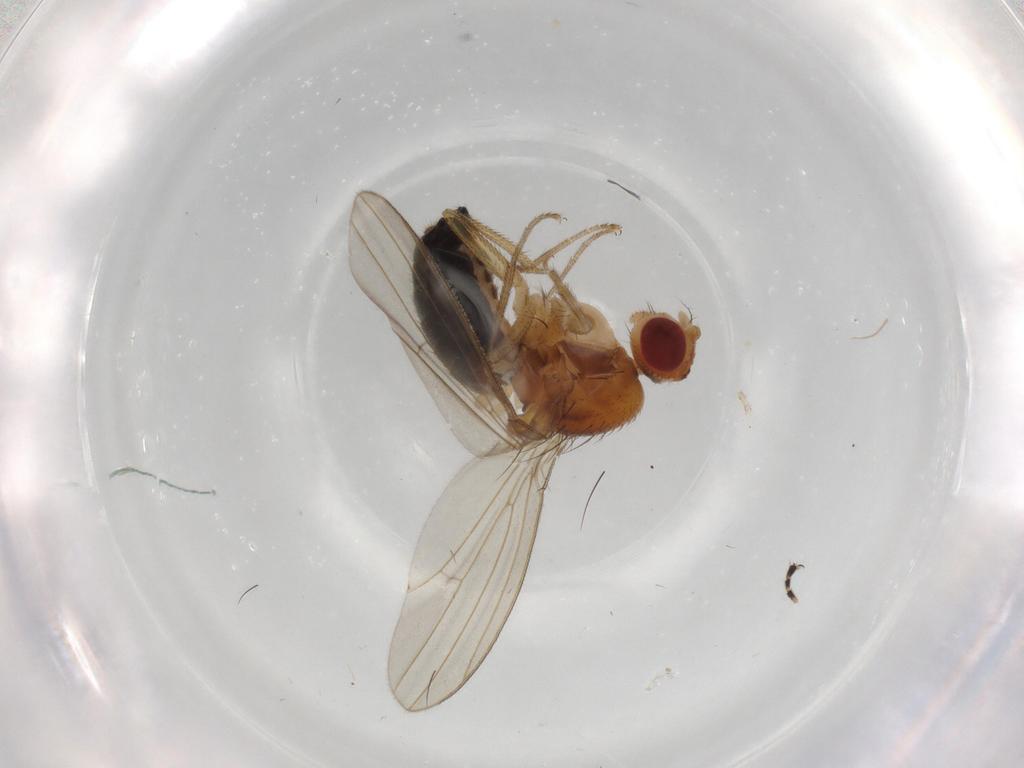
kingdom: Animalia
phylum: Arthropoda
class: Insecta
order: Diptera
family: Drosophilidae
